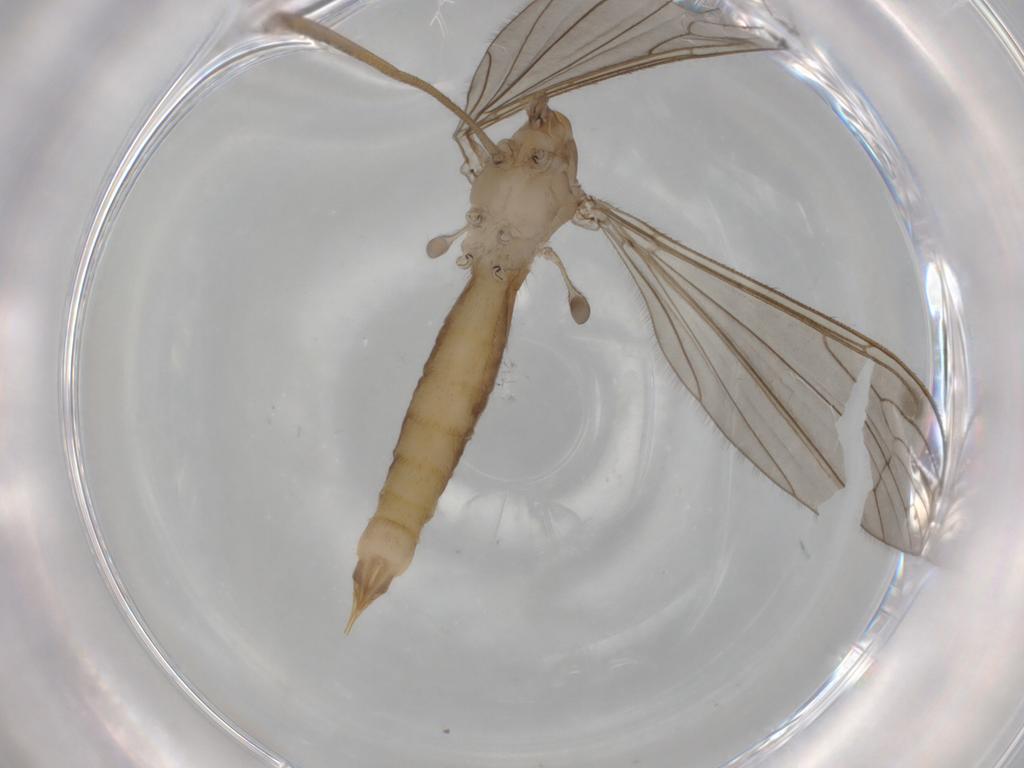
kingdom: Animalia
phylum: Arthropoda
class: Insecta
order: Diptera
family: Limoniidae
